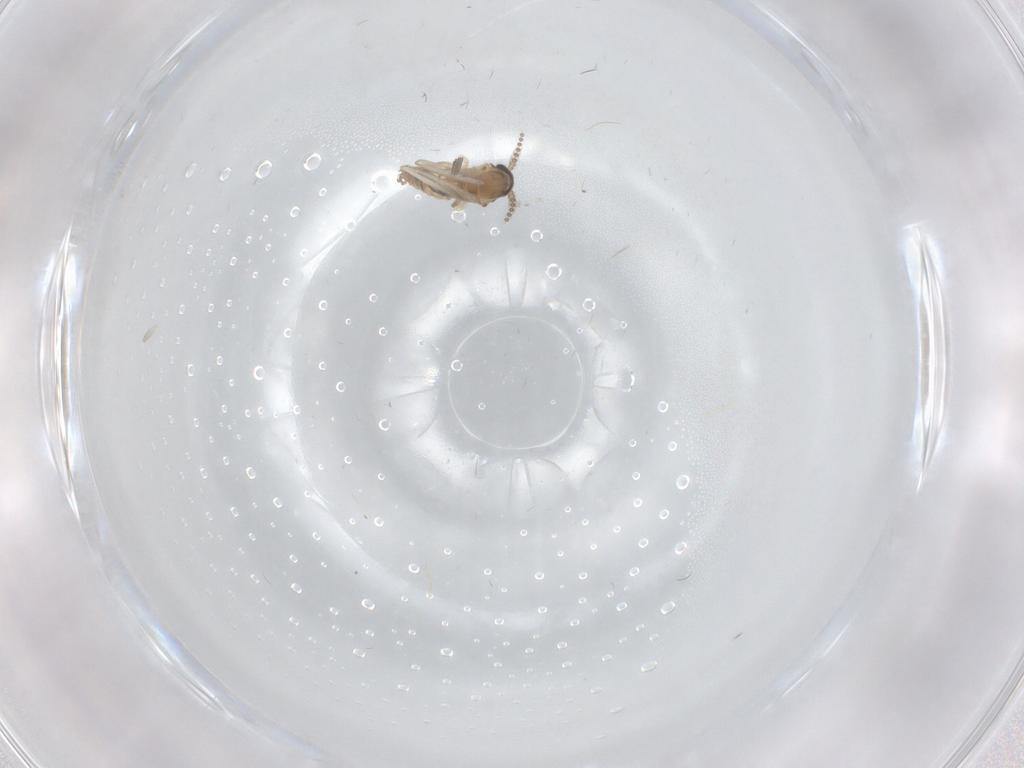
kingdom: Animalia
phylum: Arthropoda
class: Insecta
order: Diptera
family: Psychodidae
